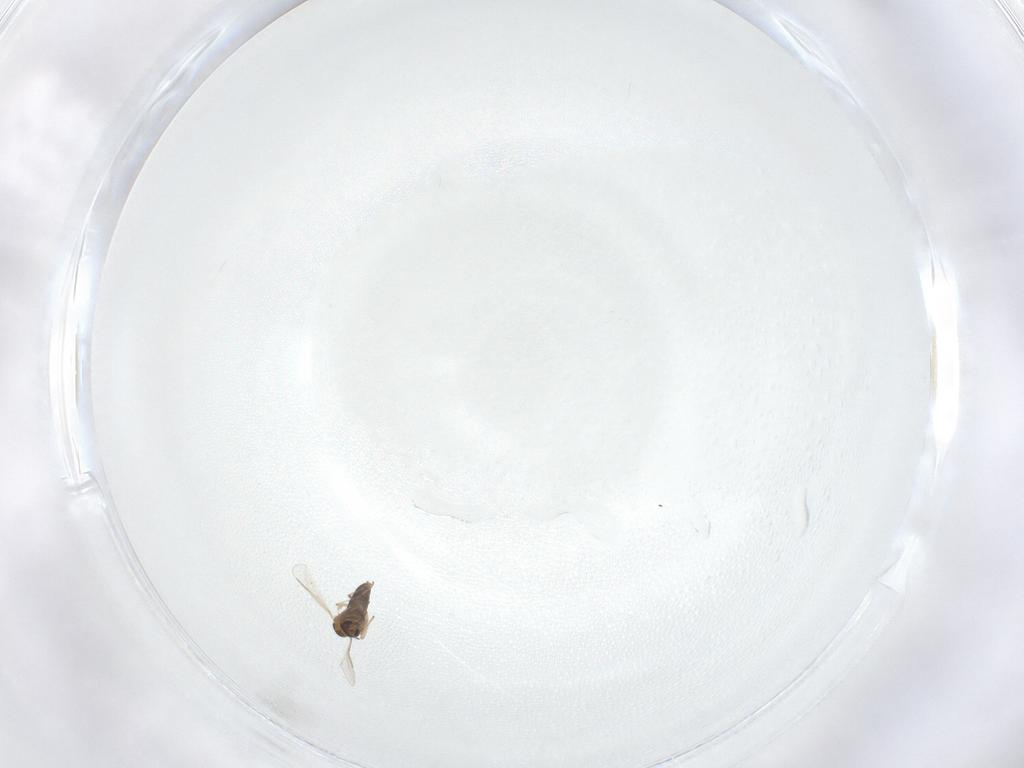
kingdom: Animalia
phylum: Arthropoda
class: Insecta
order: Diptera
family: Chironomidae
